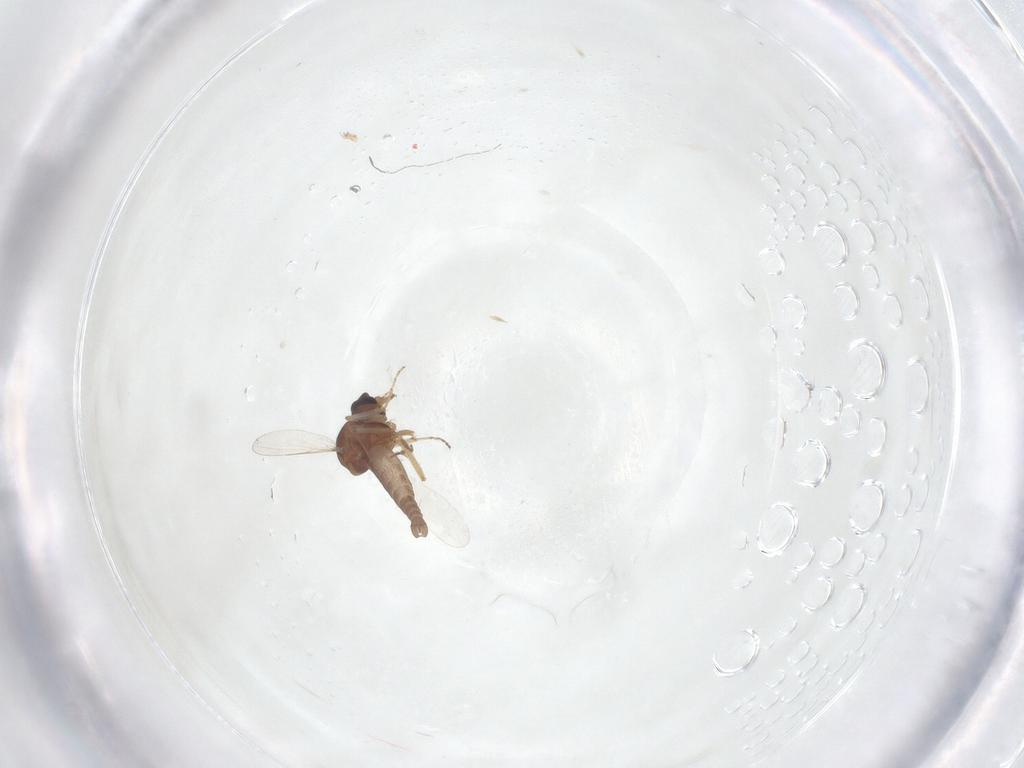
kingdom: Animalia
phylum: Arthropoda
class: Insecta
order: Diptera
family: Ceratopogonidae
